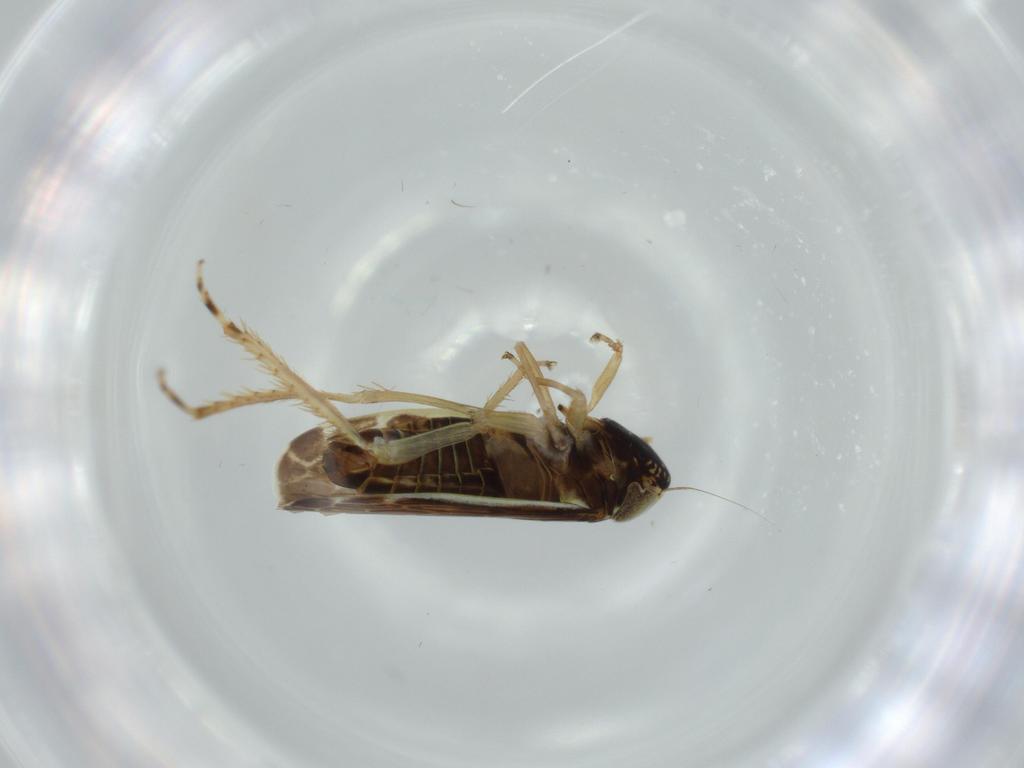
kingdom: Animalia
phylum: Arthropoda
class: Insecta
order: Hemiptera
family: Cicadellidae
